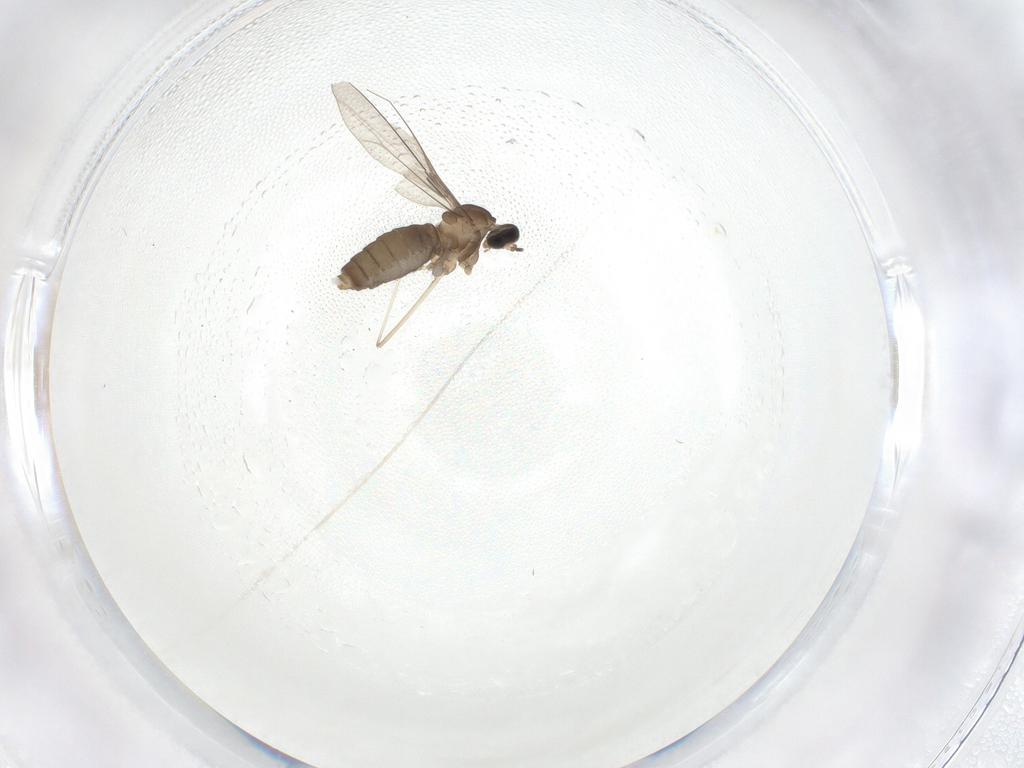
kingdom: Animalia
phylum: Arthropoda
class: Insecta
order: Diptera
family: Cecidomyiidae
